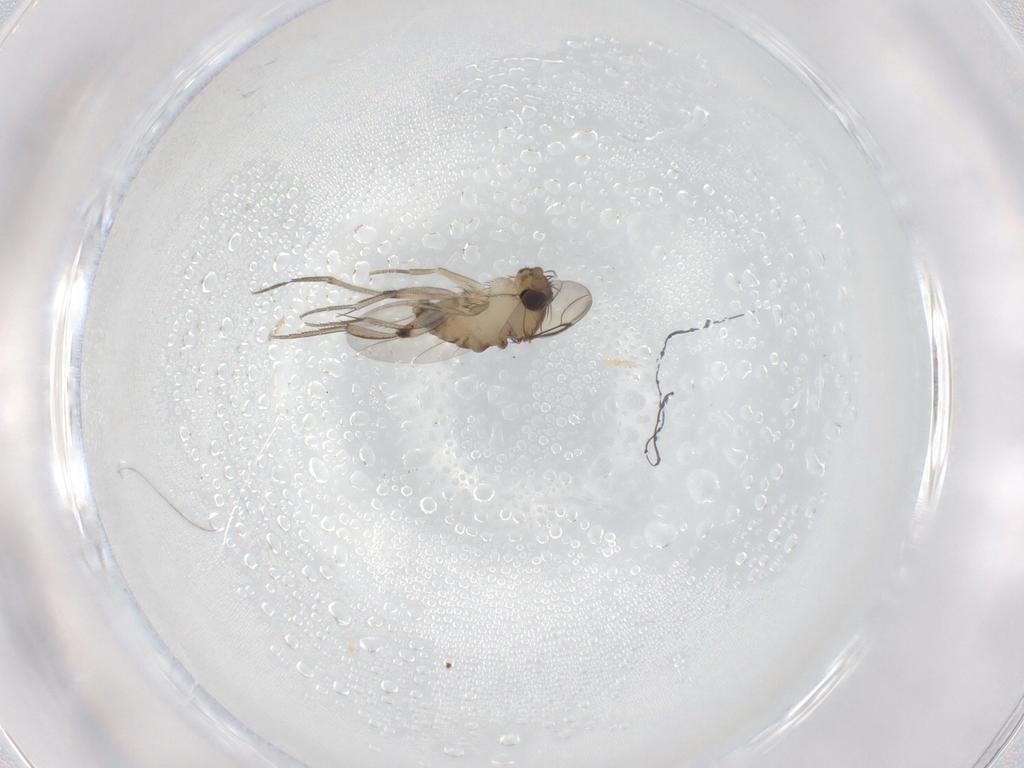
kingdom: Animalia
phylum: Arthropoda
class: Insecta
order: Diptera
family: Phoridae
